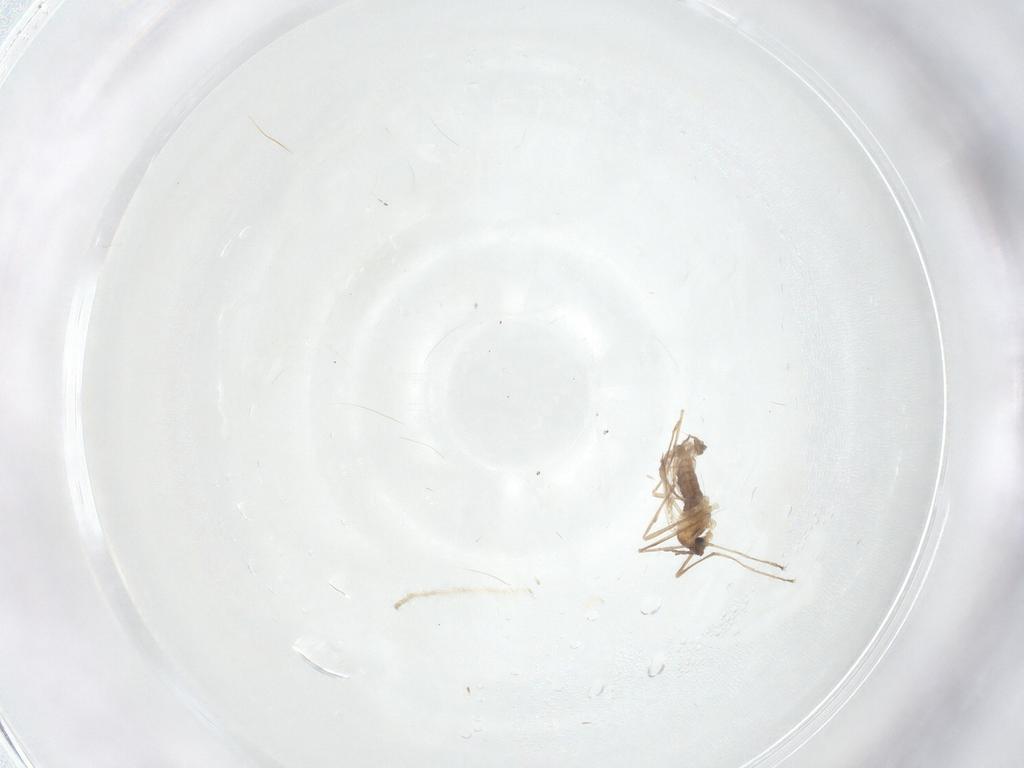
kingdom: Animalia
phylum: Arthropoda
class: Insecta
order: Diptera
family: Cecidomyiidae
